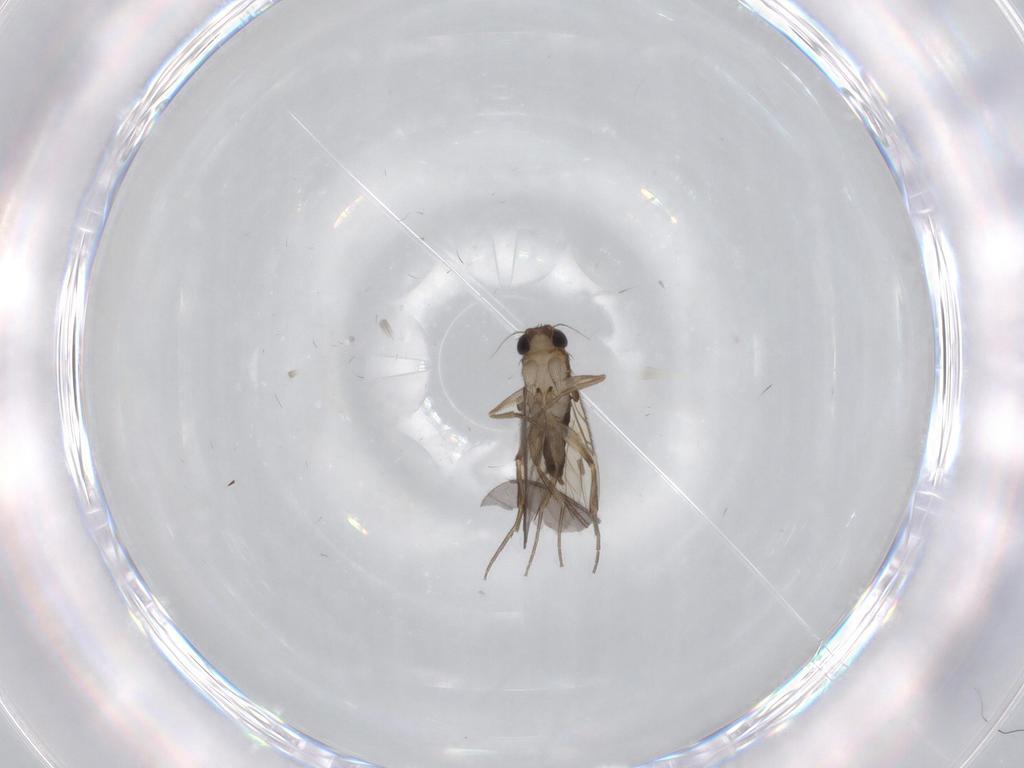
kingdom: Animalia
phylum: Arthropoda
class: Insecta
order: Diptera
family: Phoridae
